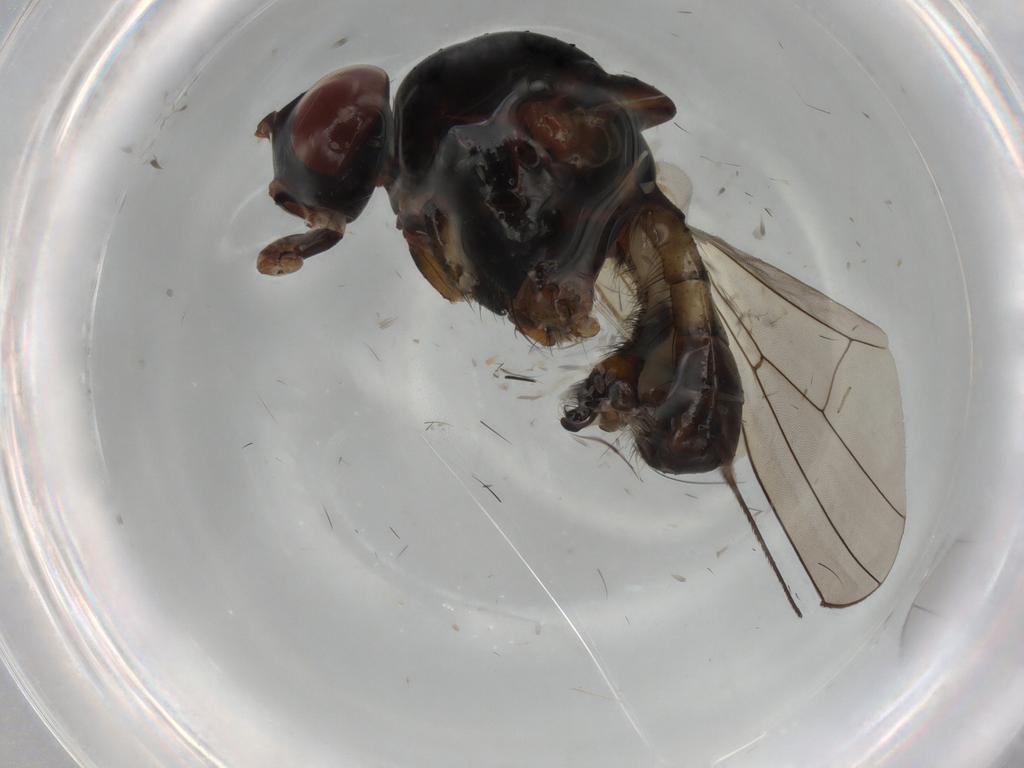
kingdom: Animalia
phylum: Arthropoda
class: Insecta
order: Diptera
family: Anthomyiidae
